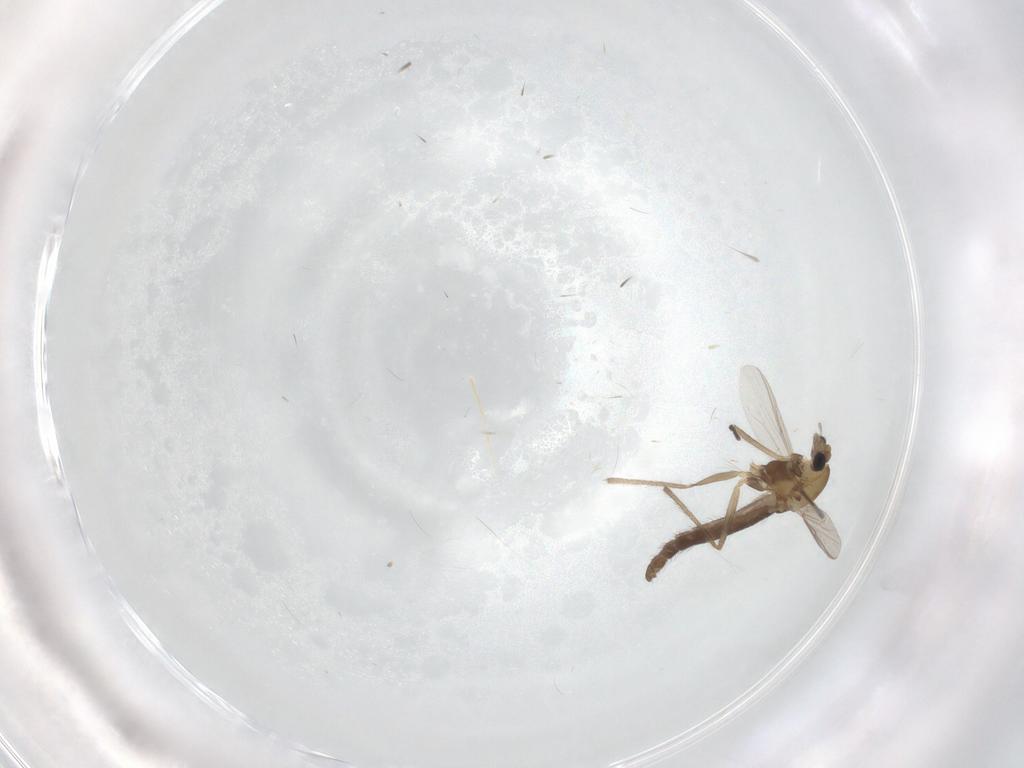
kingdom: Animalia
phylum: Arthropoda
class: Insecta
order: Diptera
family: Chironomidae
